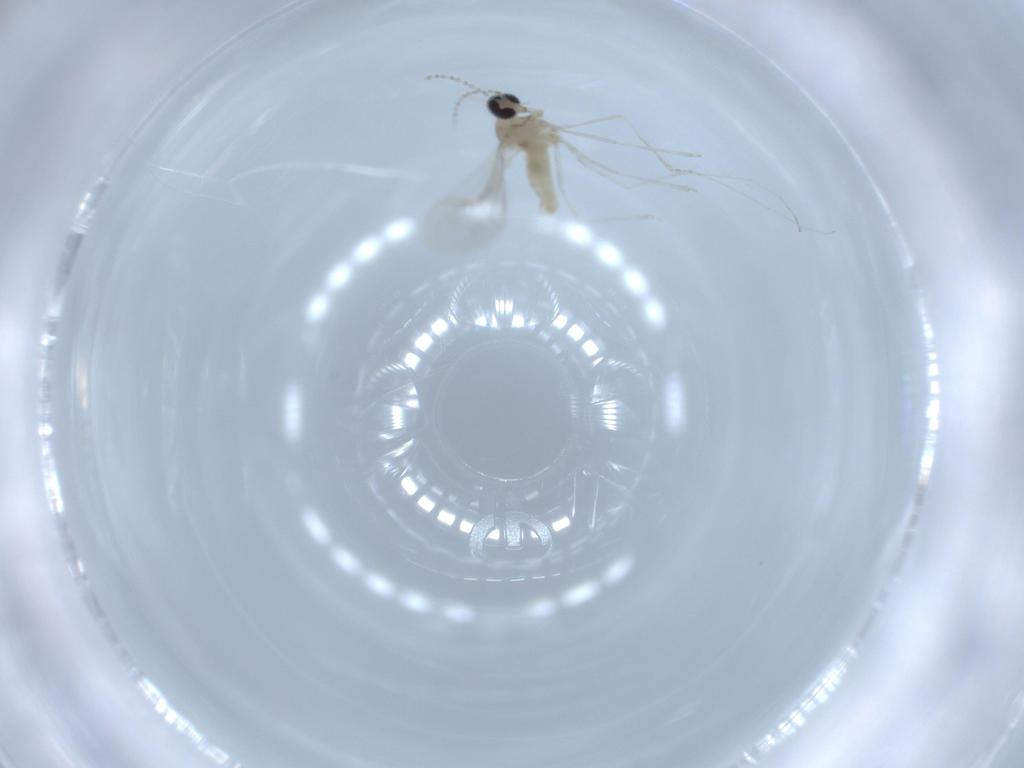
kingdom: Animalia
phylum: Arthropoda
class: Insecta
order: Diptera
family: Cecidomyiidae
